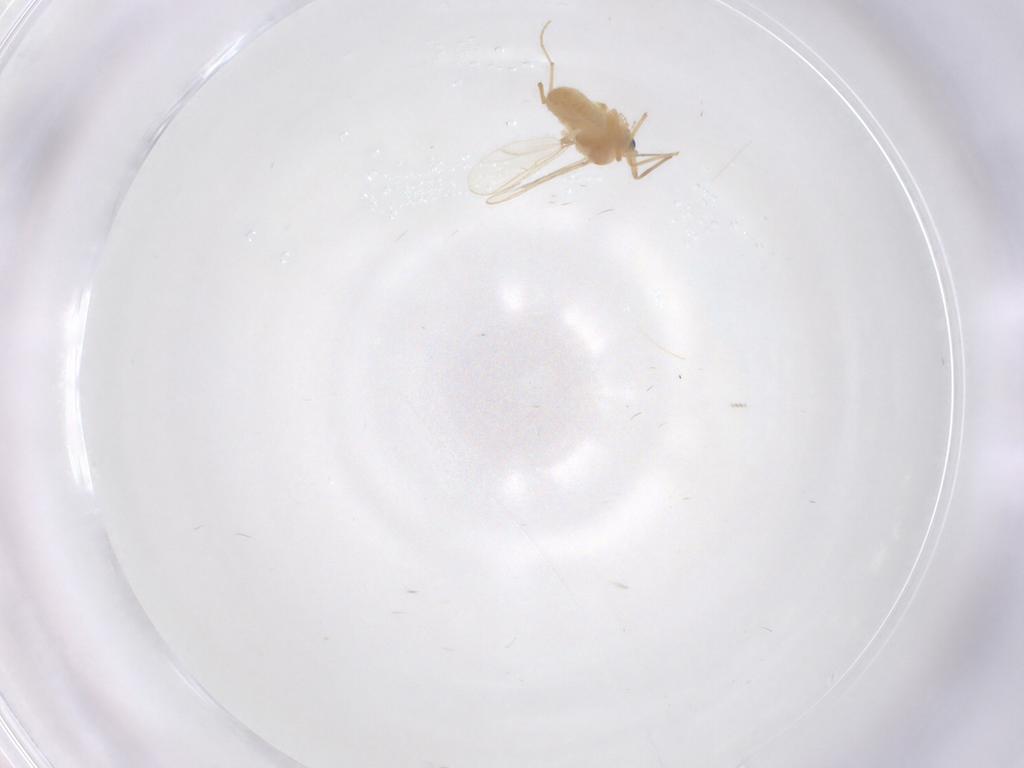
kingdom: Animalia
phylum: Arthropoda
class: Insecta
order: Diptera
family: Chironomidae
